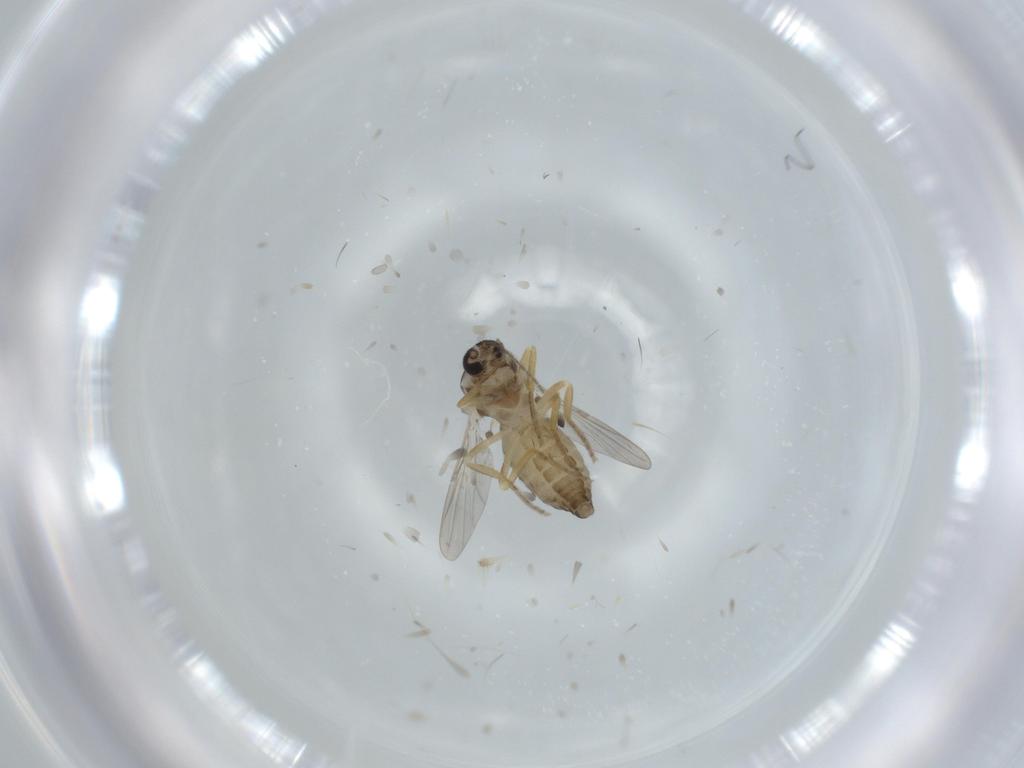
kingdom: Animalia
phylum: Arthropoda
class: Insecta
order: Diptera
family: Ceratopogonidae
